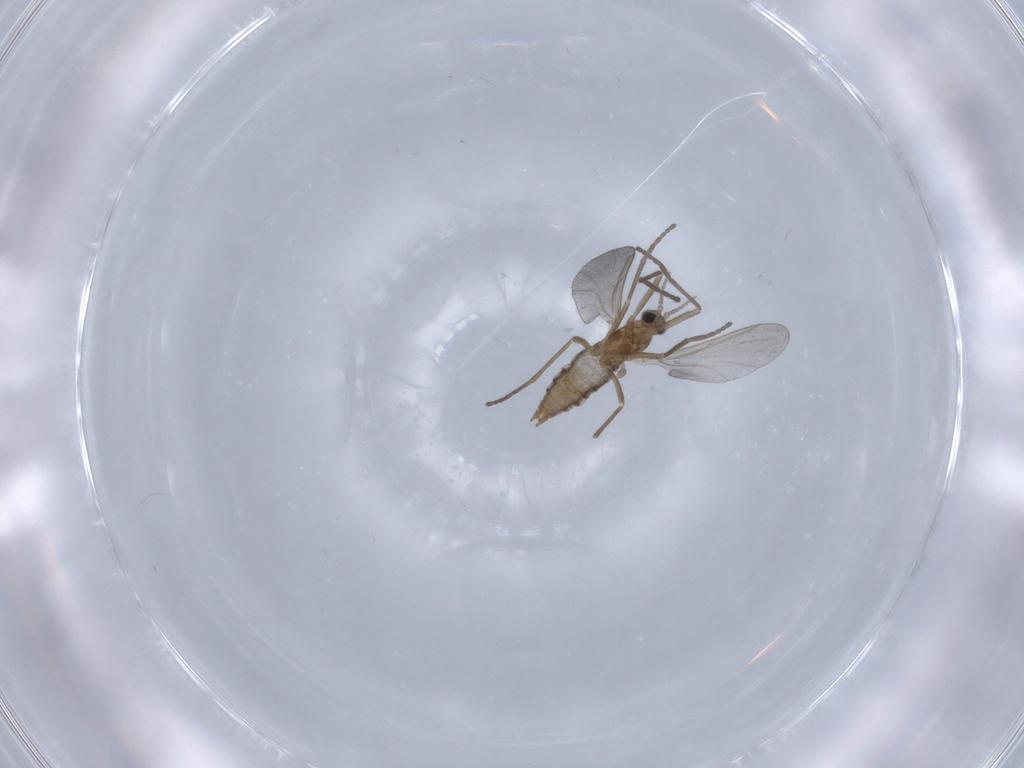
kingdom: Animalia
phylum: Arthropoda
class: Insecta
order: Diptera
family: Cecidomyiidae
